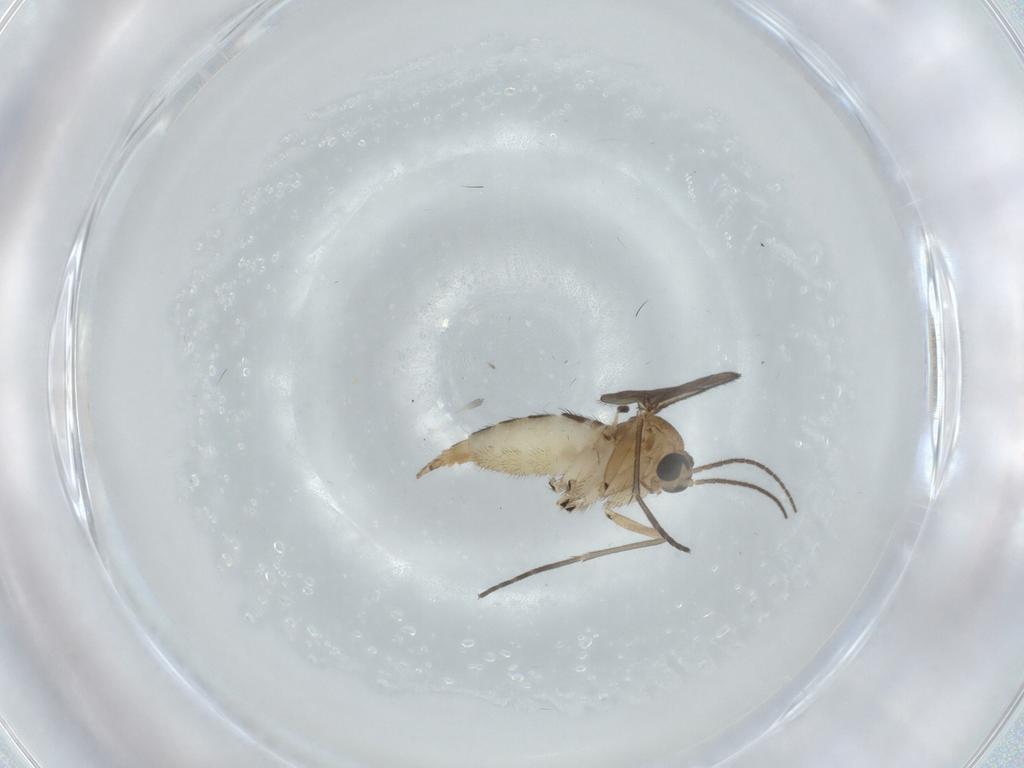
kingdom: Animalia
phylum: Arthropoda
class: Insecta
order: Diptera
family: Sciaridae
